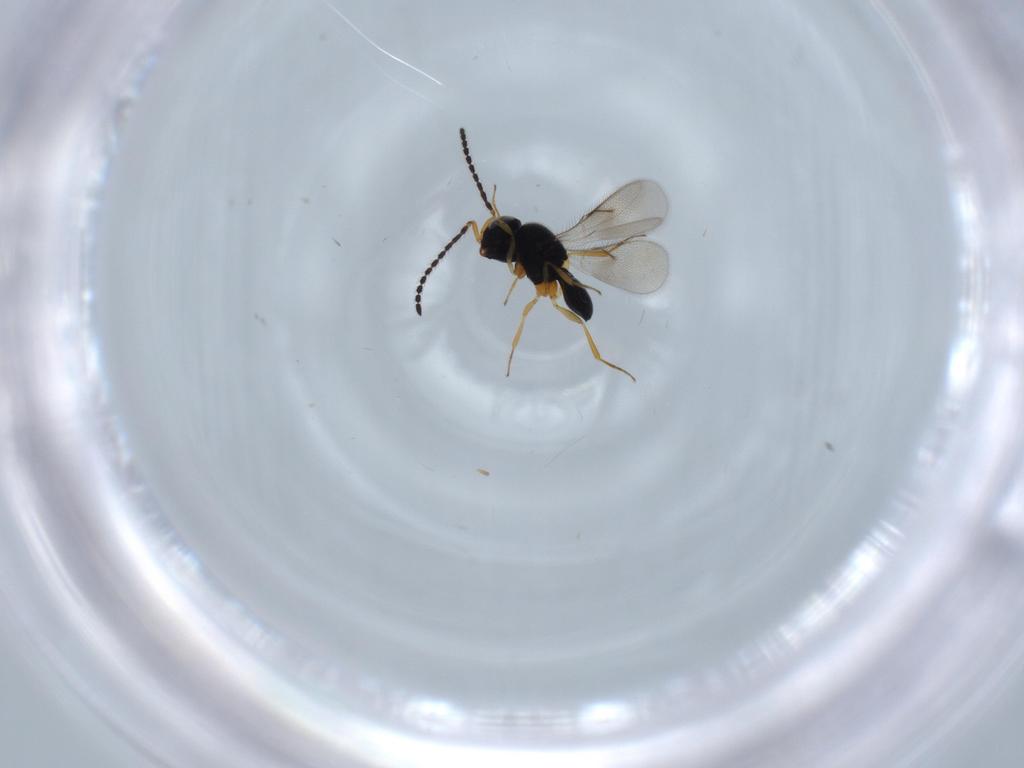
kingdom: Animalia
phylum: Arthropoda
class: Insecta
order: Hymenoptera
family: Scelionidae
